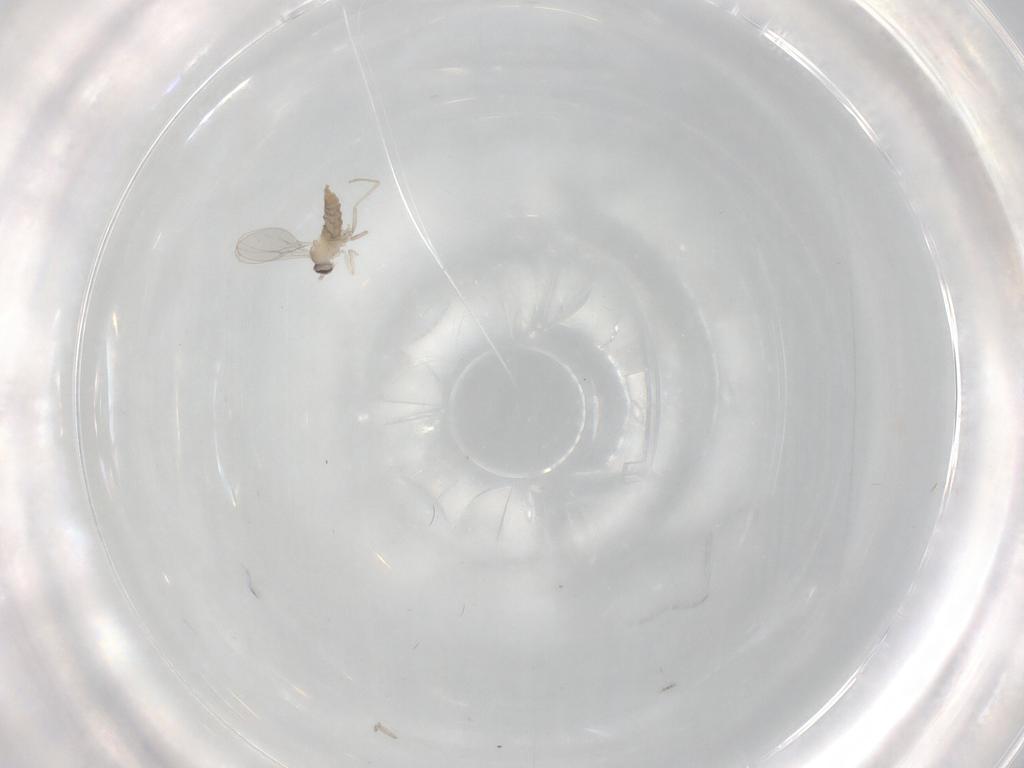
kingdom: Animalia
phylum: Arthropoda
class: Insecta
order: Diptera
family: Cecidomyiidae
